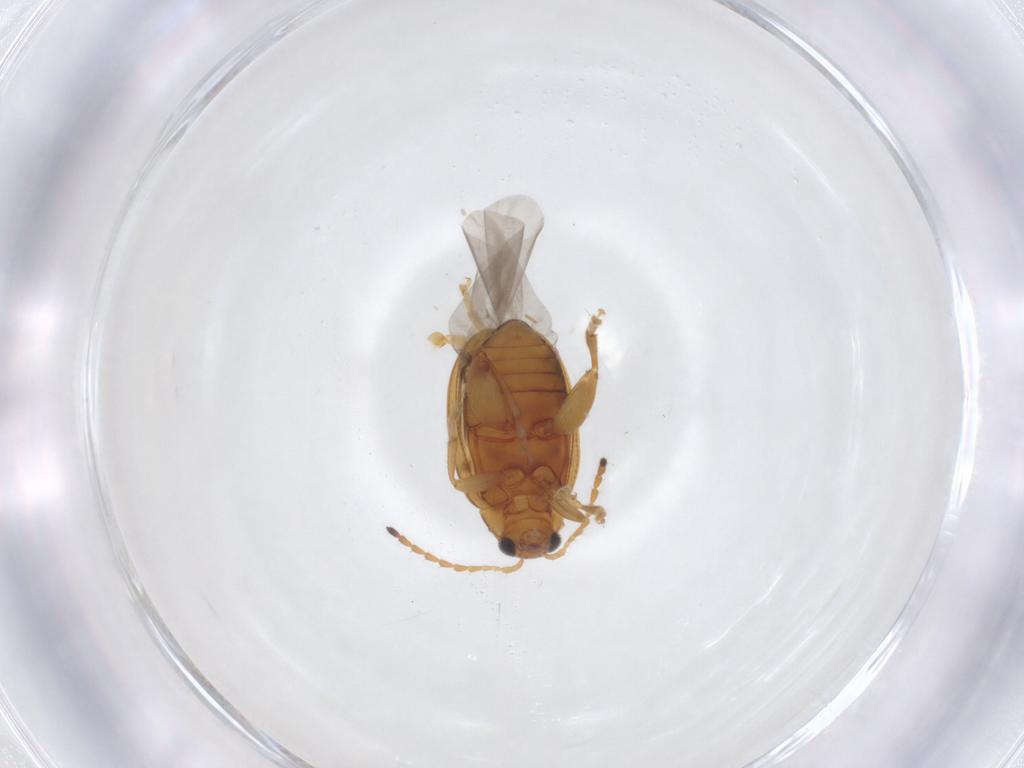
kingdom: Animalia
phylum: Arthropoda
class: Insecta
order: Coleoptera
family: Chrysomelidae
